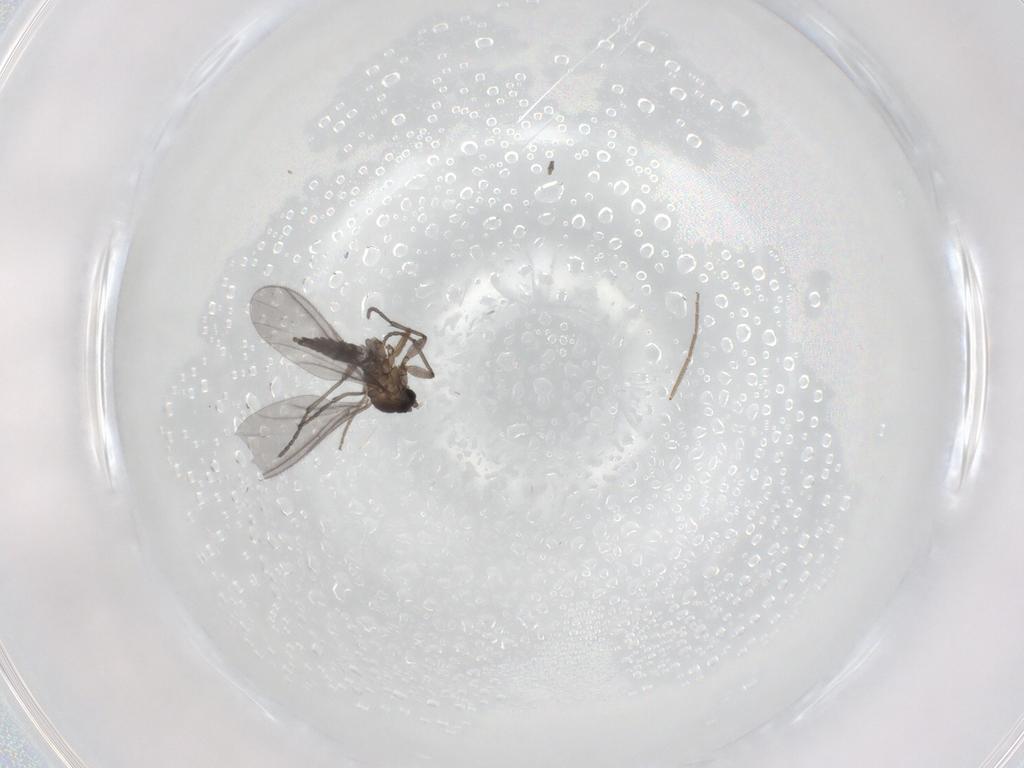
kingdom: Animalia
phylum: Arthropoda
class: Insecta
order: Diptera
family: Sciaridae
